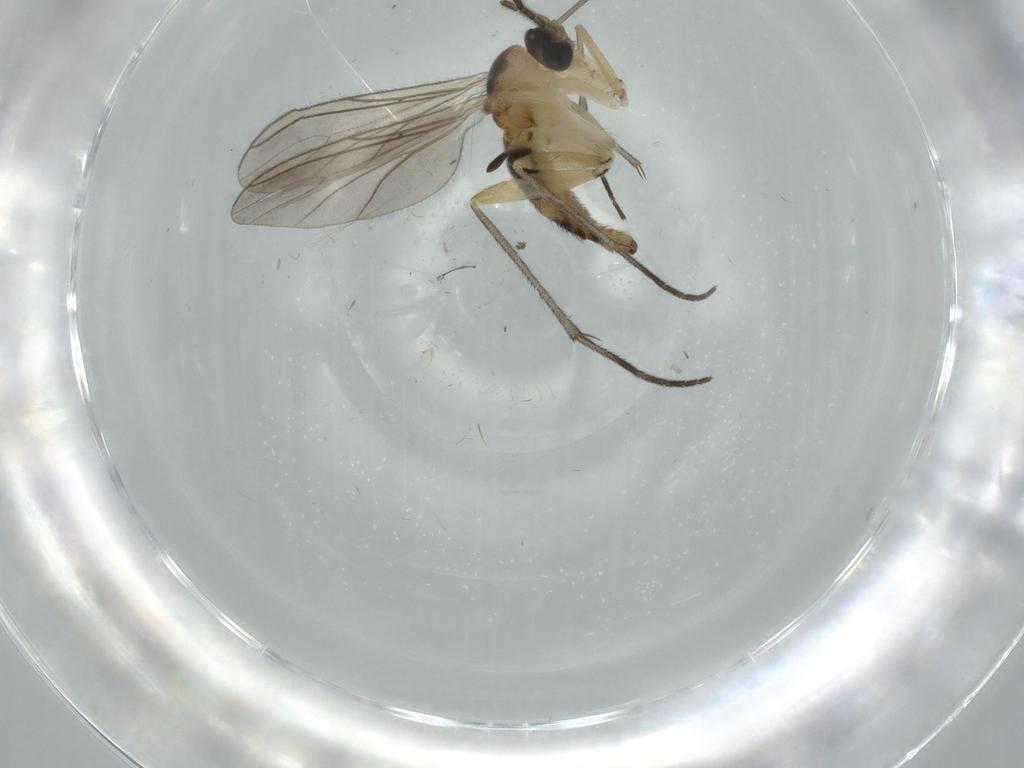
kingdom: Animalia
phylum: Arthropoda
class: Insecta
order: Diptera
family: Sciaridae
